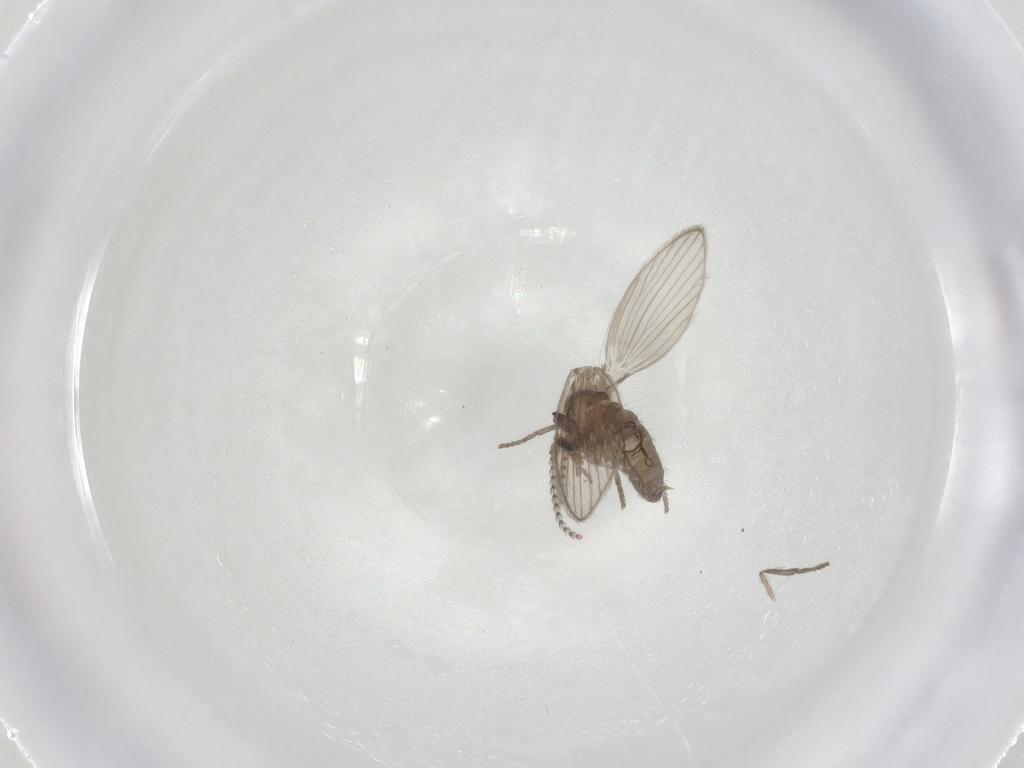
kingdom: Animalia
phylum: Arthropoda
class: Insecta
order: Diptera
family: Psychodidae
